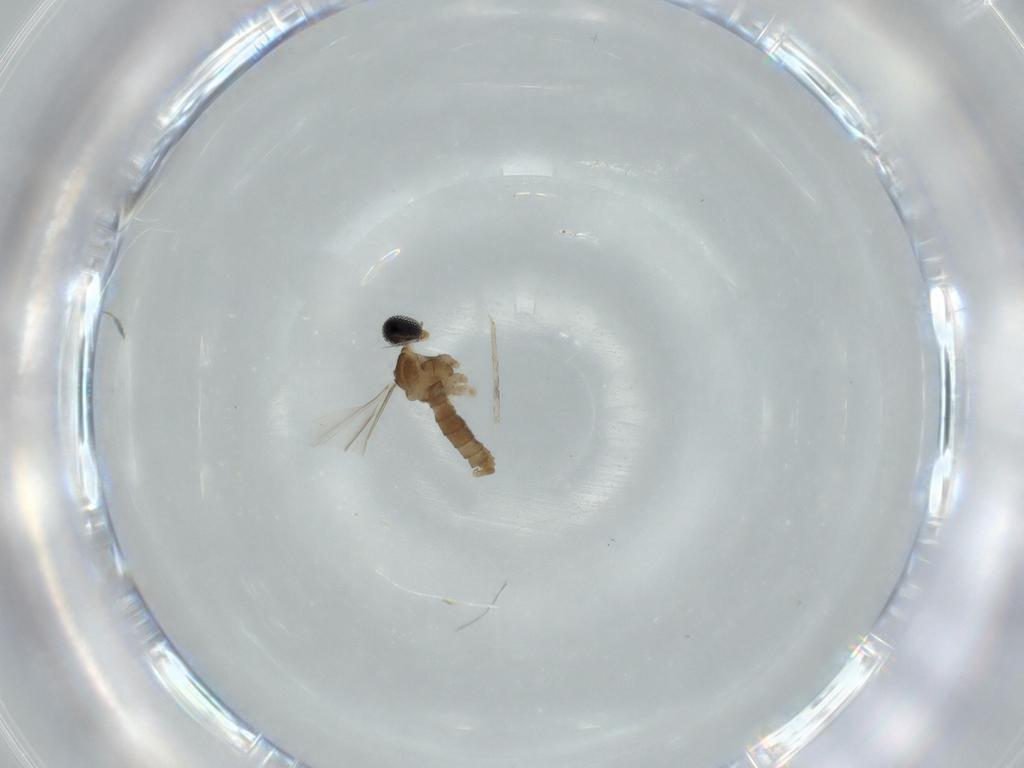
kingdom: Animalia
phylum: Arthropoda
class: Insecta
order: Diptera
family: Cecidomyiidae
